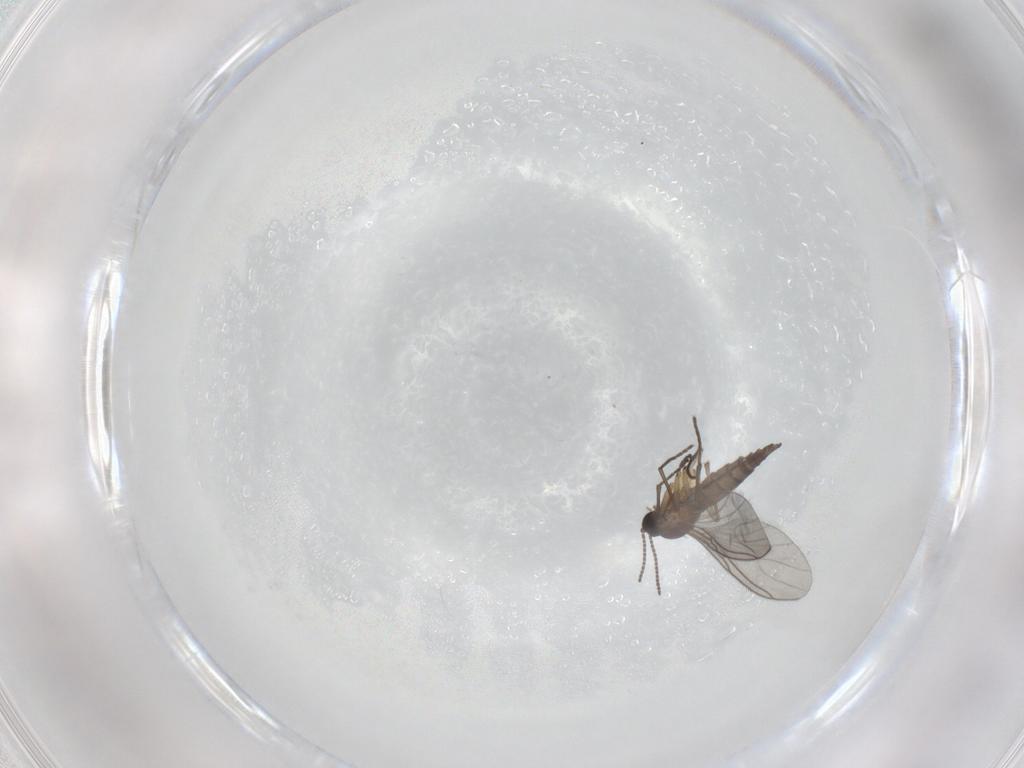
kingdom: Animalia
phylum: Arthropoda
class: Insecta
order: Diptera
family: Sciaridae
